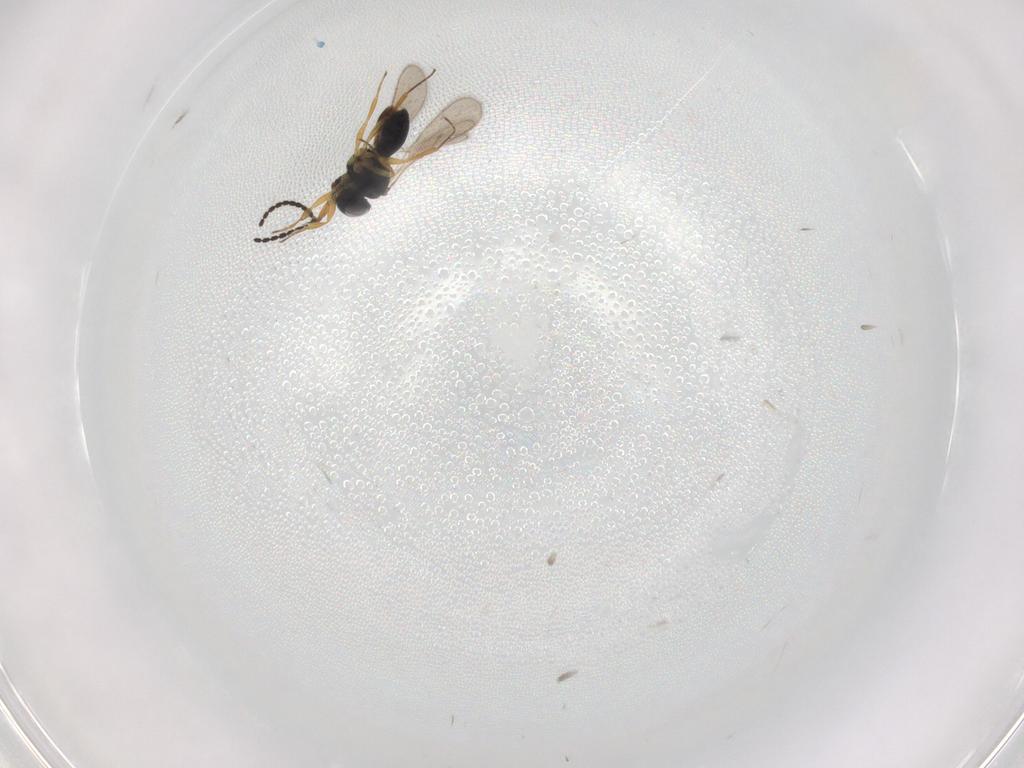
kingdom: Animalia
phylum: Arthropoda
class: Insecta
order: Hymenoptera
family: Scelionidae
